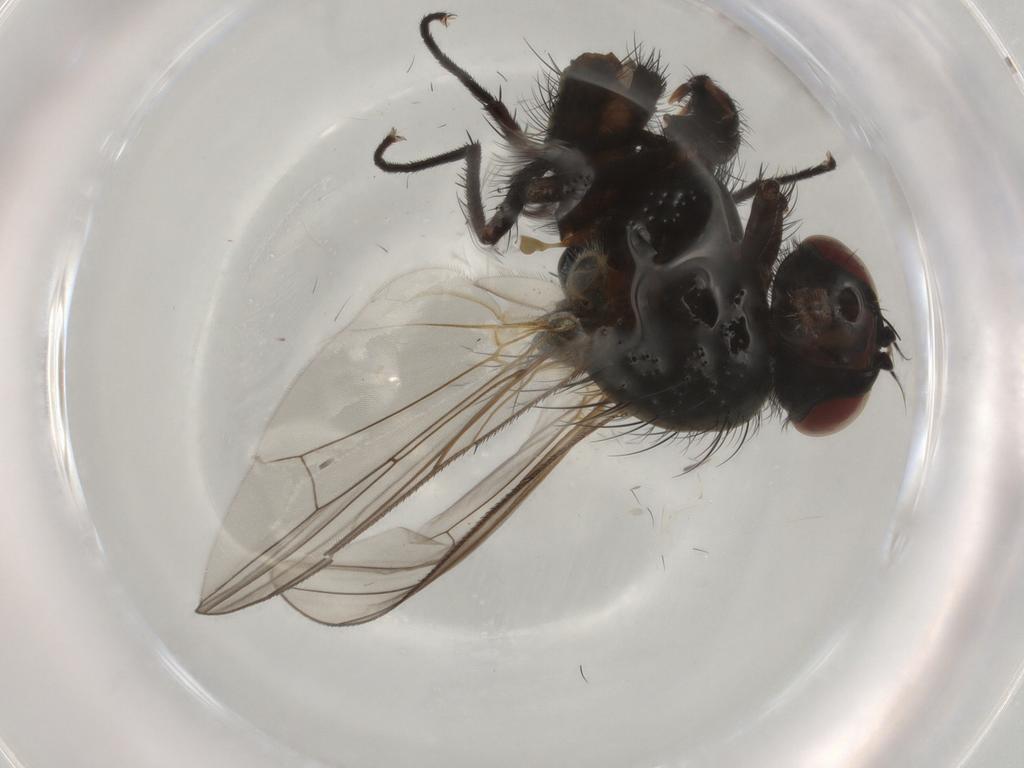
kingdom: Animalia
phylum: Arthropoda
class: Insecta
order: Diptera
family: Anthomyiidae
